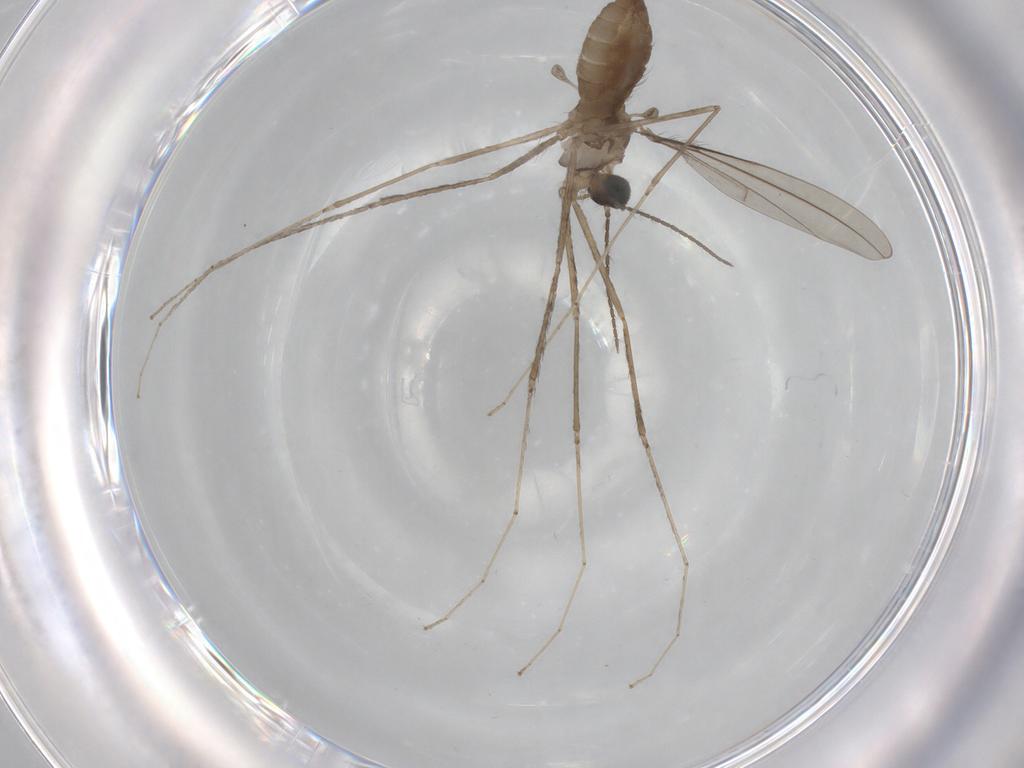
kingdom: Animalia
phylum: Arthropoda
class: Insecta
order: Diptera
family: Cecidomyiidae
